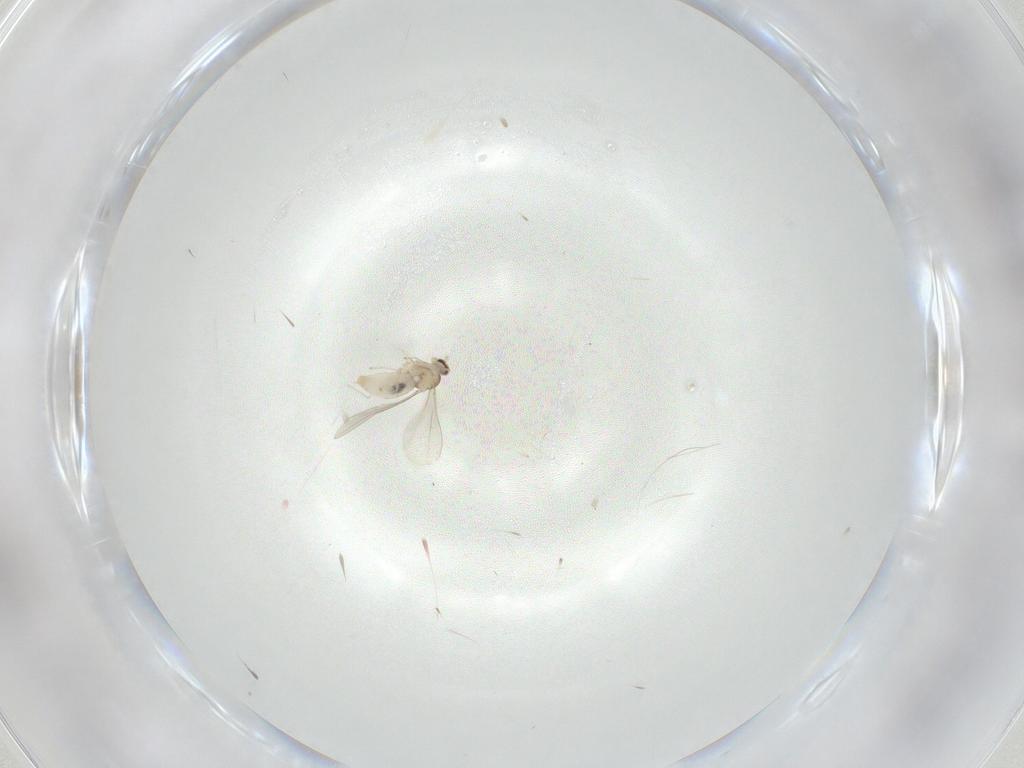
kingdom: Animalia
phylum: Arthropoda
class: Insecta
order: Diptera
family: Cecidomyiidae
